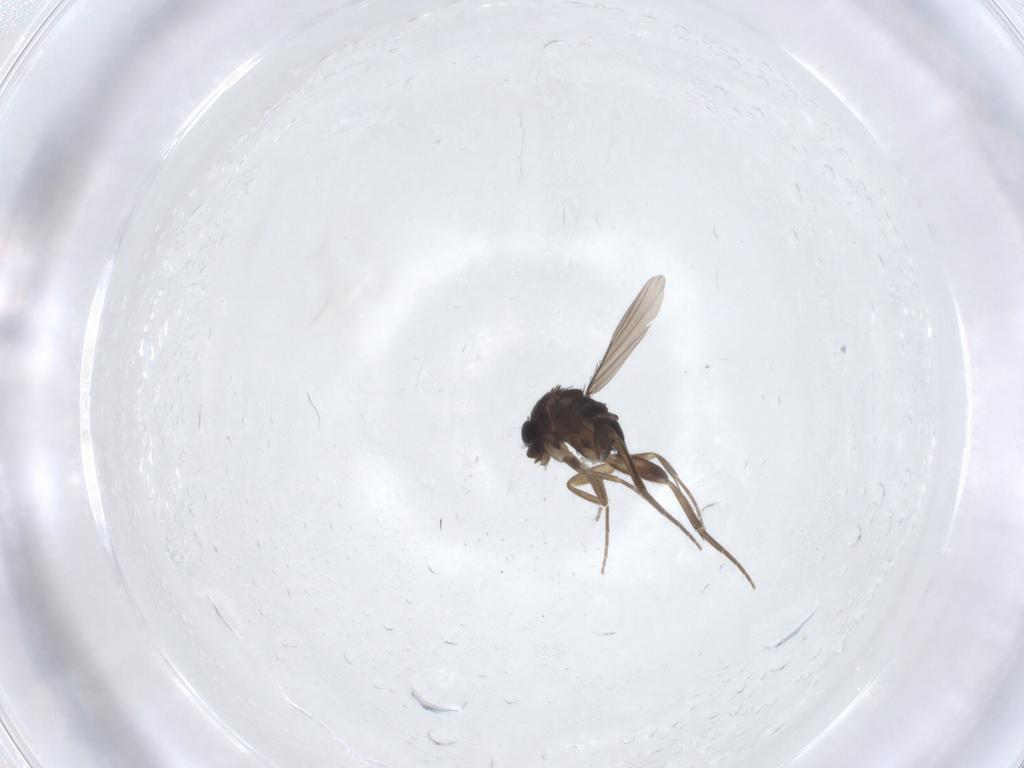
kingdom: Animalia
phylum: Arthropoda
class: Insecta
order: Diptera
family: Phoridae
